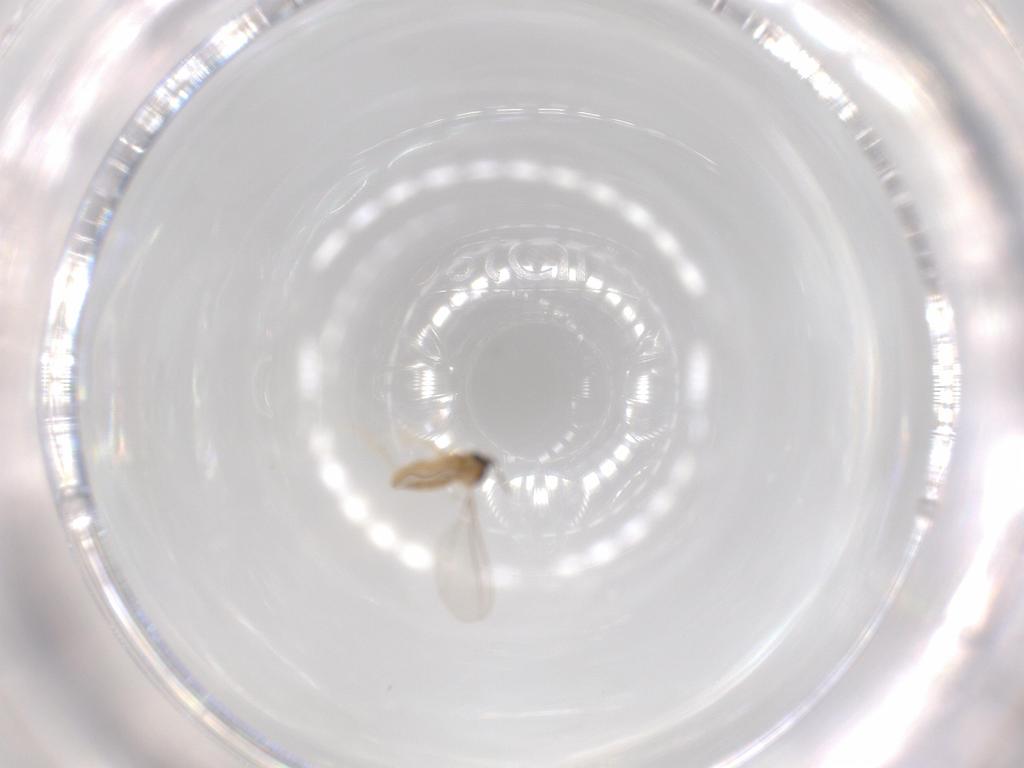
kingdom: Animalia
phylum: Arthropoda
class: Insecta
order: Diptera
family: Cecidomyiidae
